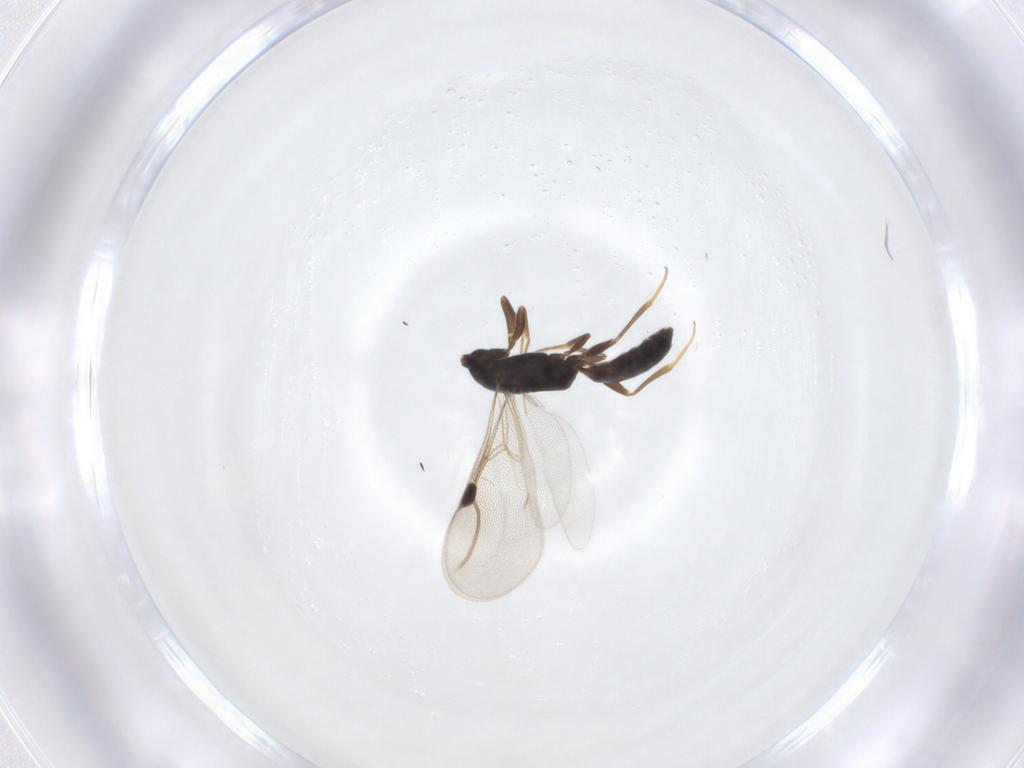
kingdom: Animalia
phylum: Arthropoda
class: Insecta
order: Hymenoptera
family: Bethylidae
